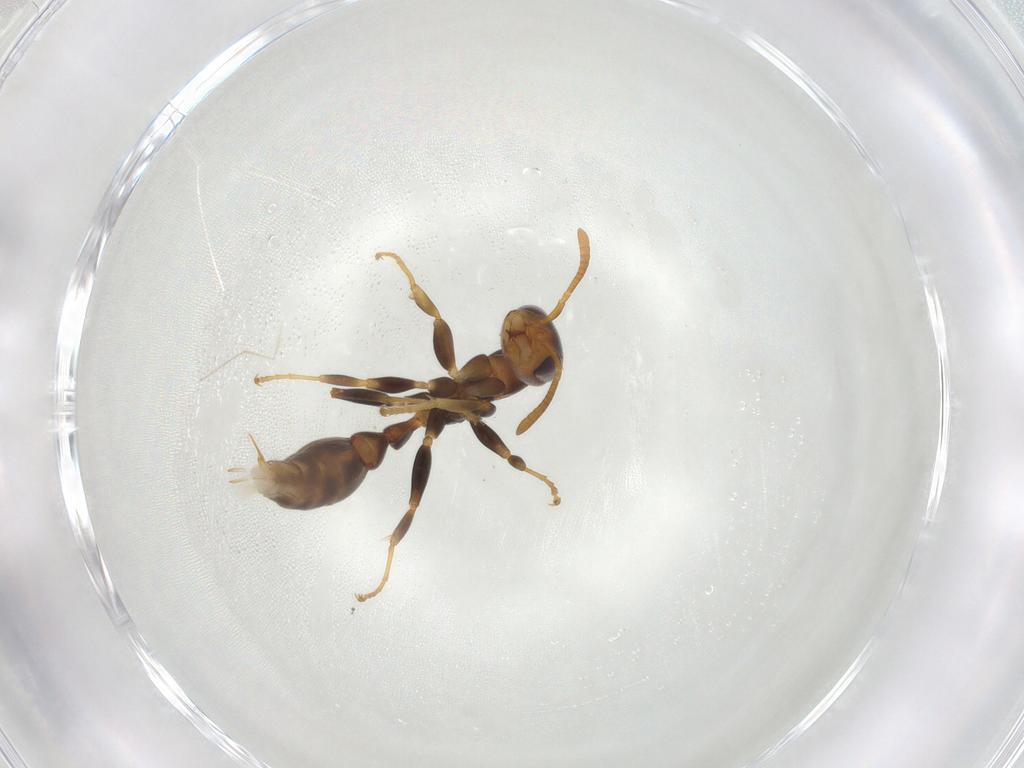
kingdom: Animalia
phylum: Arthropoda
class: Insecta
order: Hymenoptera
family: Formicidae
